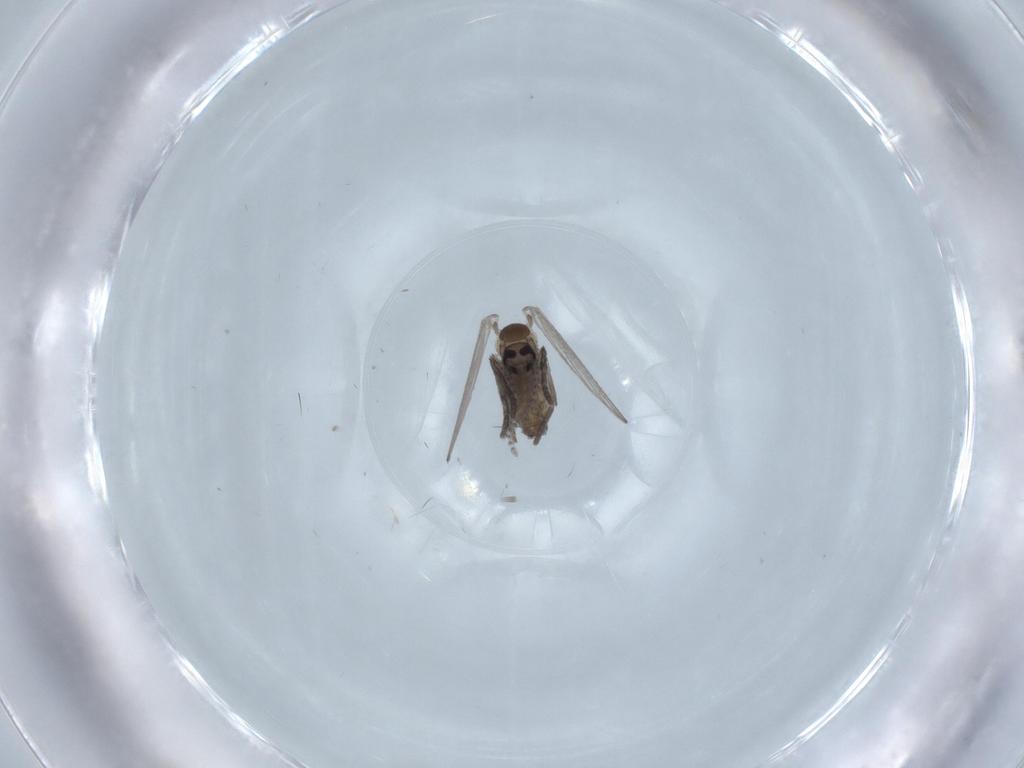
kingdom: Animalia
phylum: Arthropoda
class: Insecta
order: Diptera
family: Psychodidae
